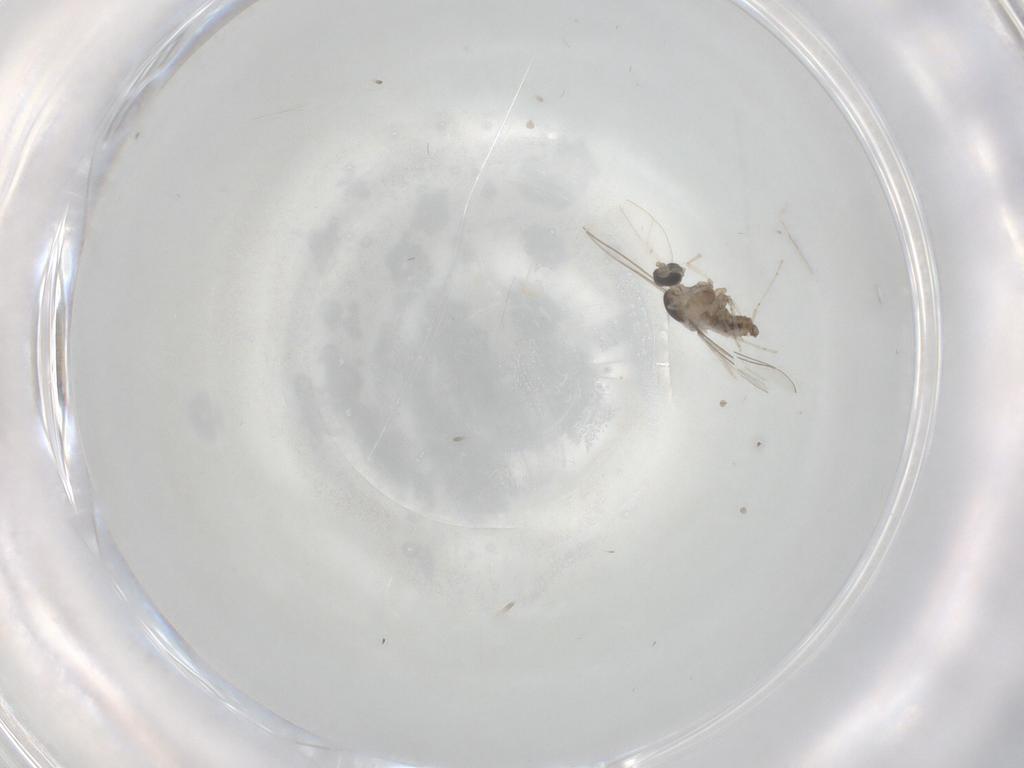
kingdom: Animalia
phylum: Arthropoda
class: Insecta
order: Diptera
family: Cecidomyiidae
